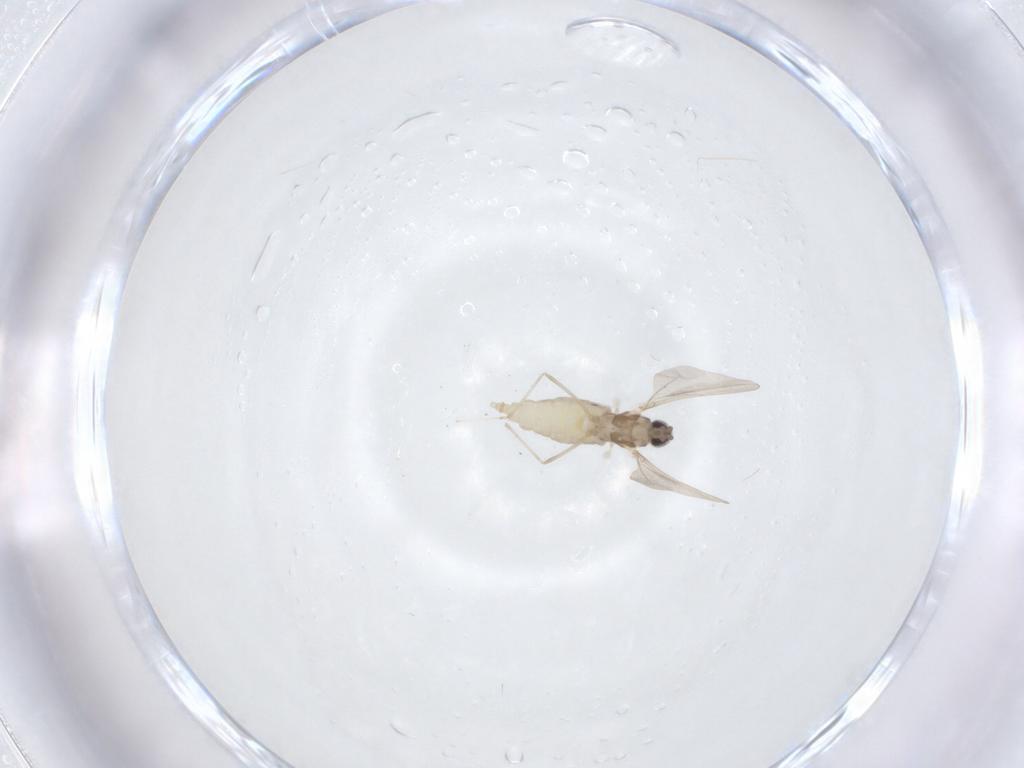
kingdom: Animalia
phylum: Arthropoda
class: Insecta
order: Diptera
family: Cecidomyiidae
